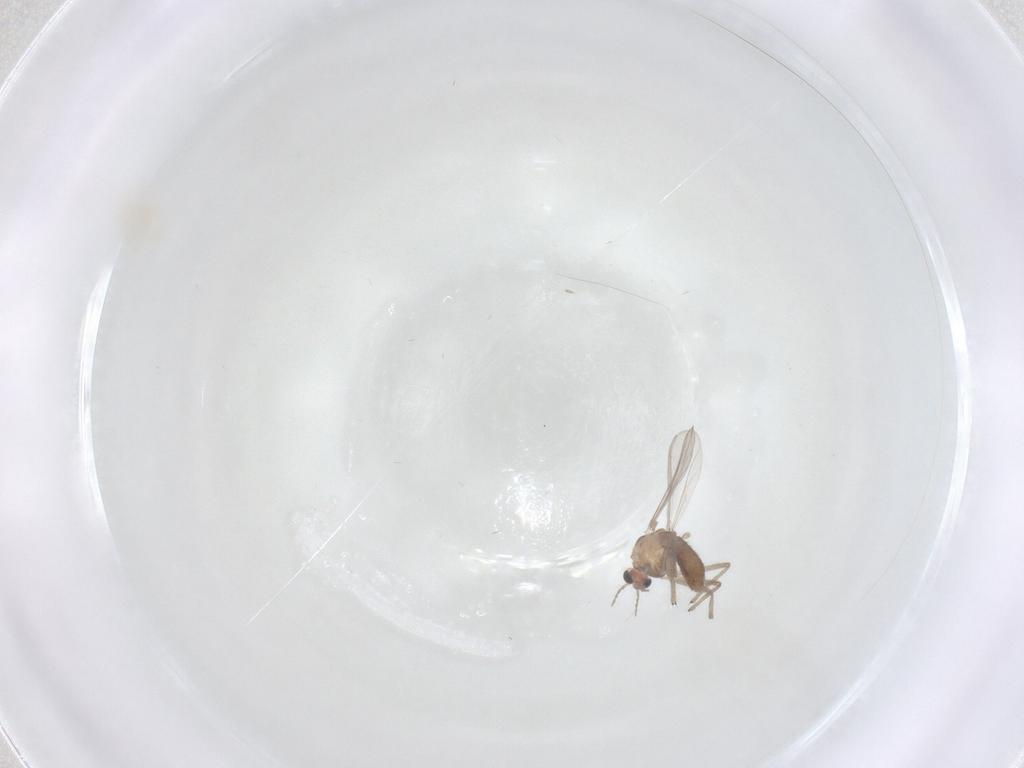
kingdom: Animalia
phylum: Arthropoda
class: Insecta
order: Diptera
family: Chironomidae
